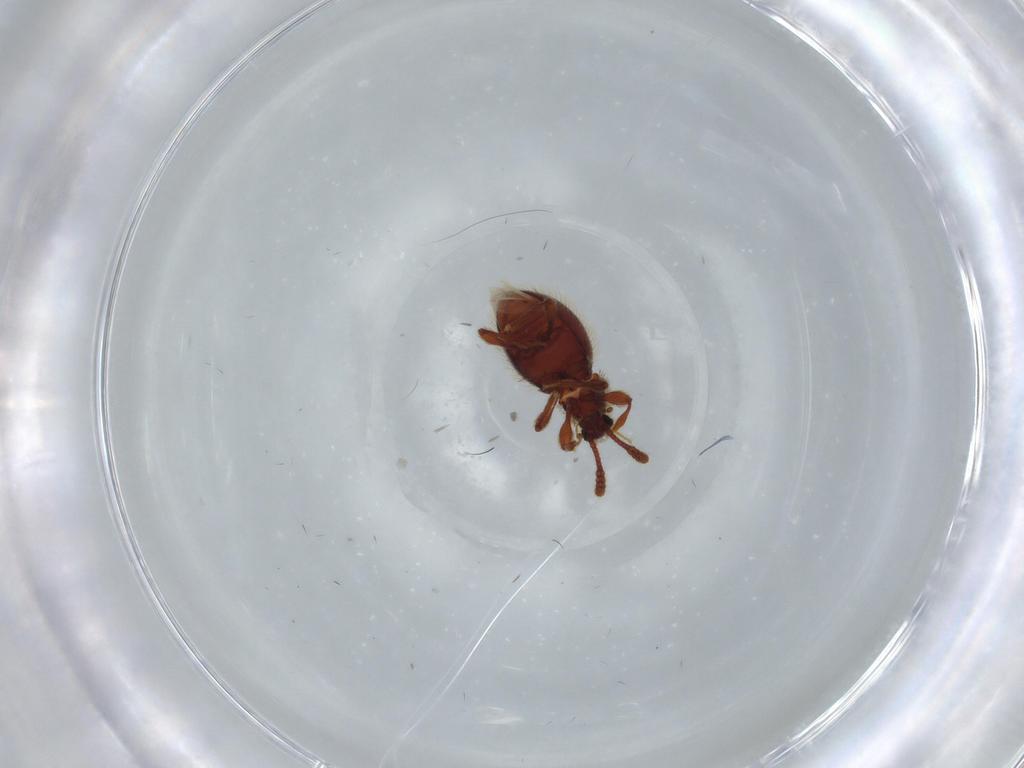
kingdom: Animalia
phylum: Arthropoda
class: Insecta
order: Coleoptera
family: Staphylinidae
